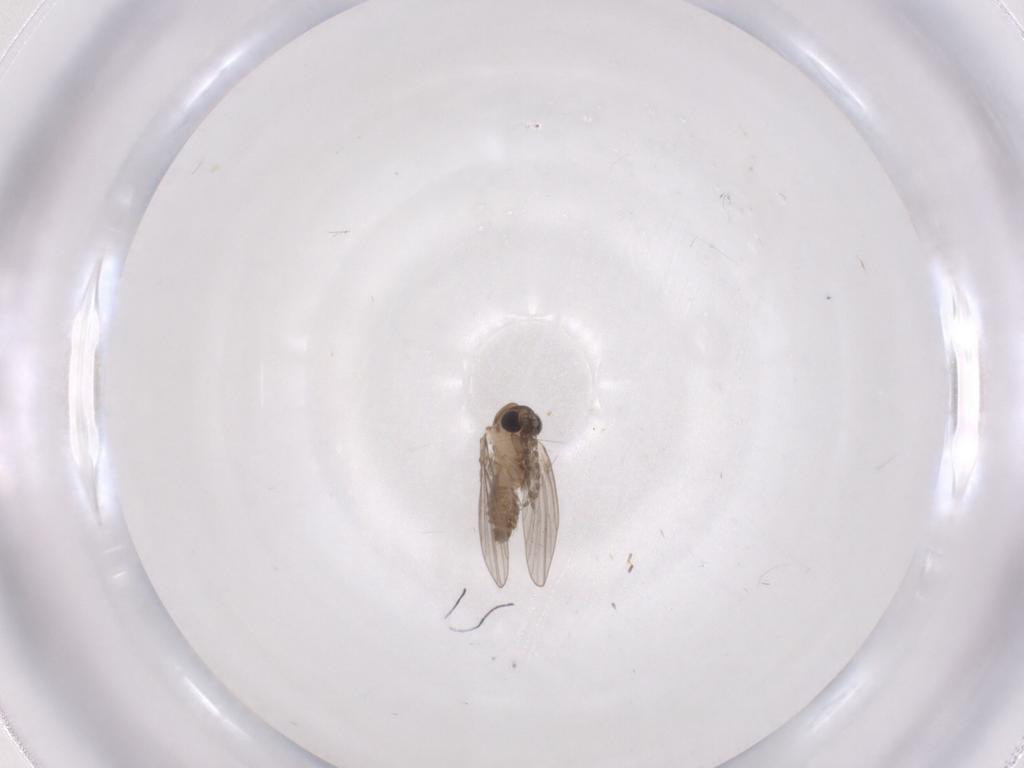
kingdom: Animalia
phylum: Arthropoda
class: Insecta
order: Diptera
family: Psychodidae
